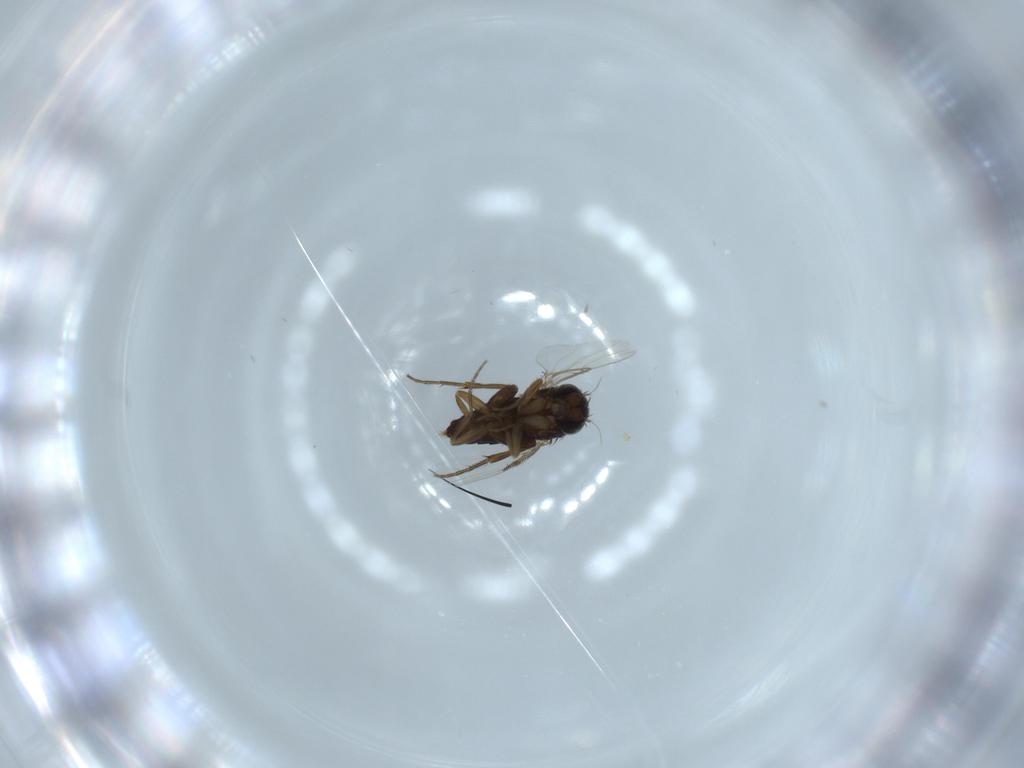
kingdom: Animalia
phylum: Arthropoda
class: Insecta
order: Diptera
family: Phoridae
